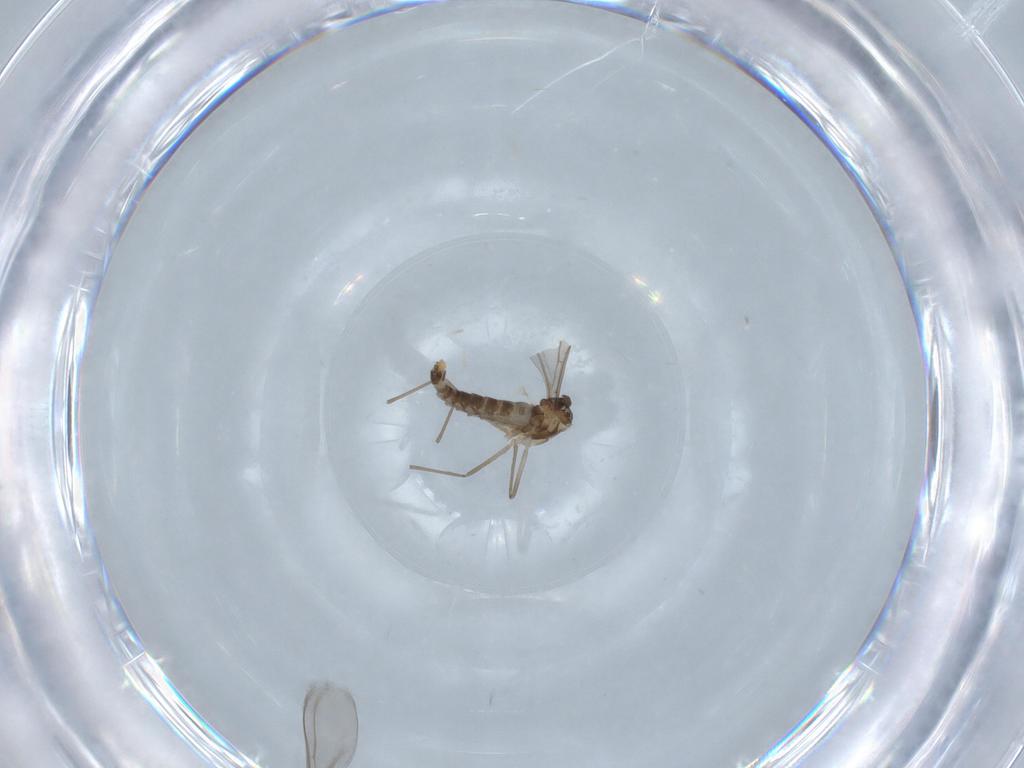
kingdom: Animalia
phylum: Arthropoda
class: Insecta
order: Diptera
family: Cecidomyiidae
